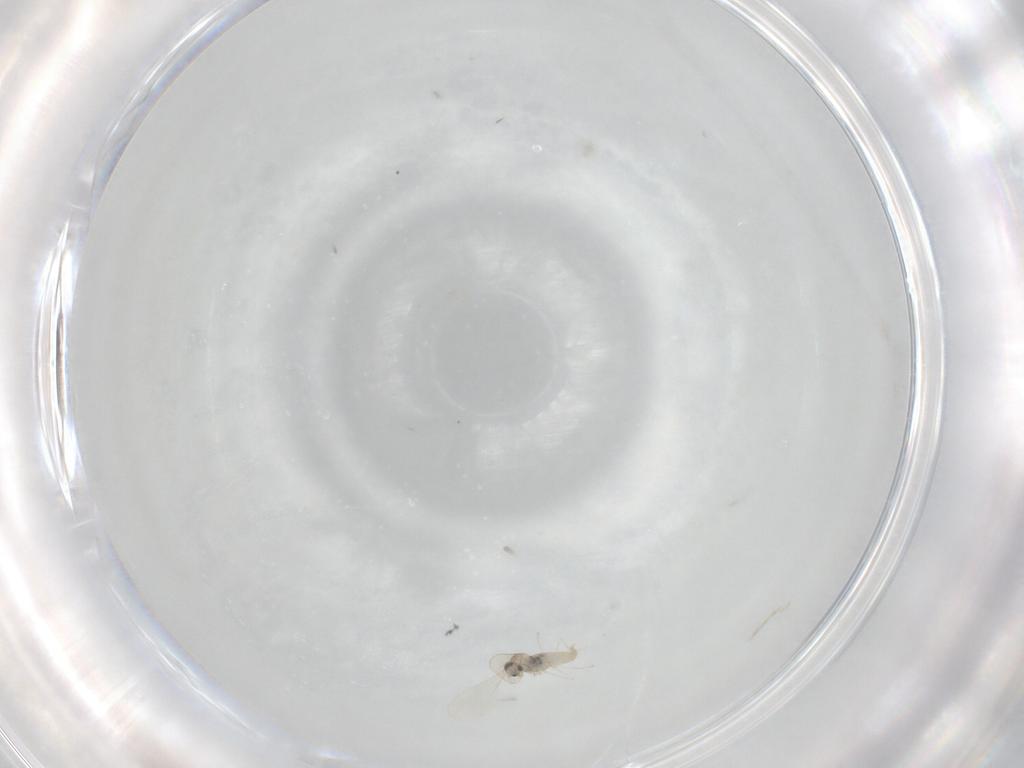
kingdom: Animalia
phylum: Arthropoda
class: Insecta
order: Diptera
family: Cecidomyiidae
